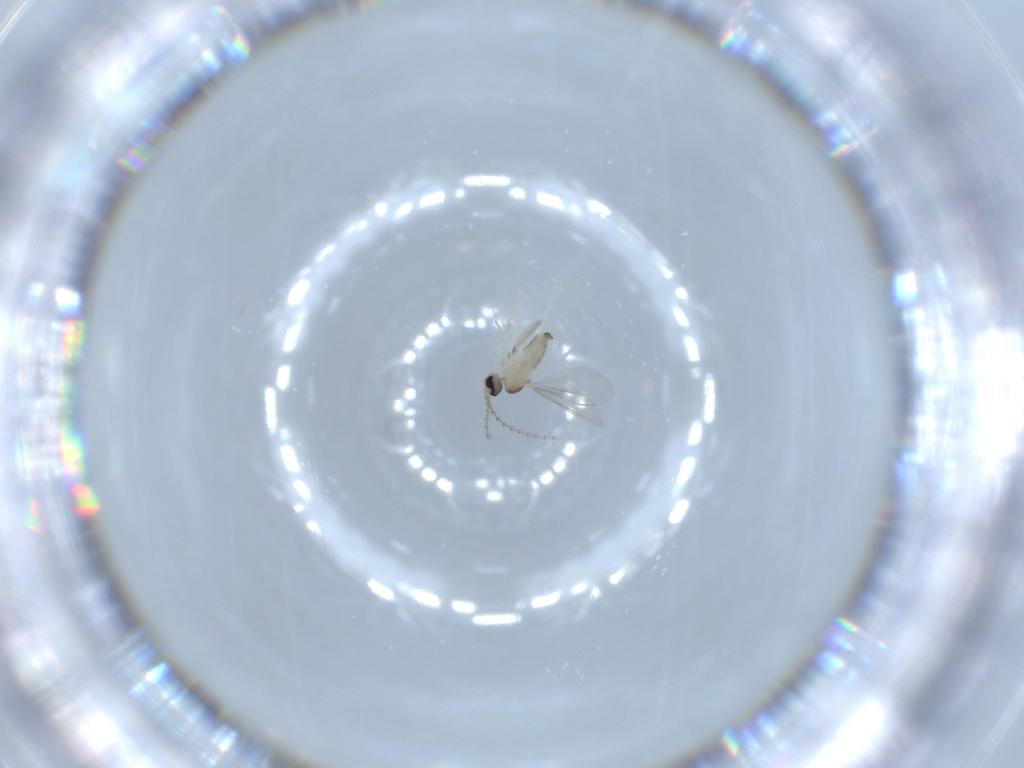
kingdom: Animalia
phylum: Arthropoda
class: Insecta
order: Diptera
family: Cecidomyiidae
